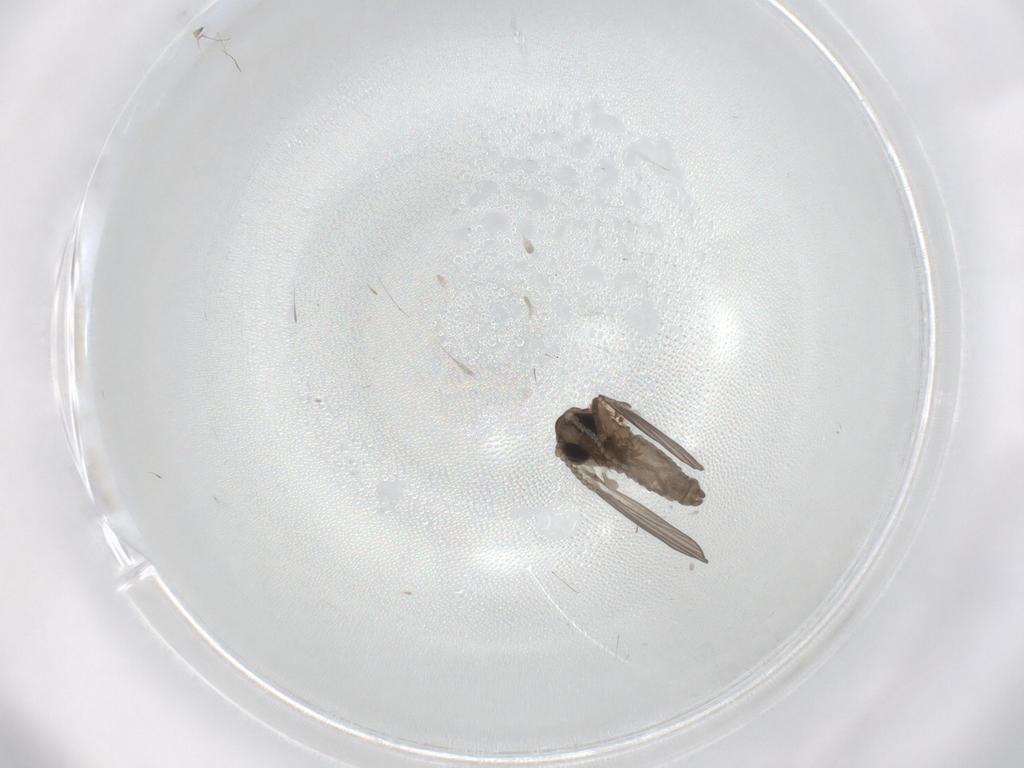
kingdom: Animalia
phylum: Arthropoda
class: Insecta
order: Diptera
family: Psychodidae
